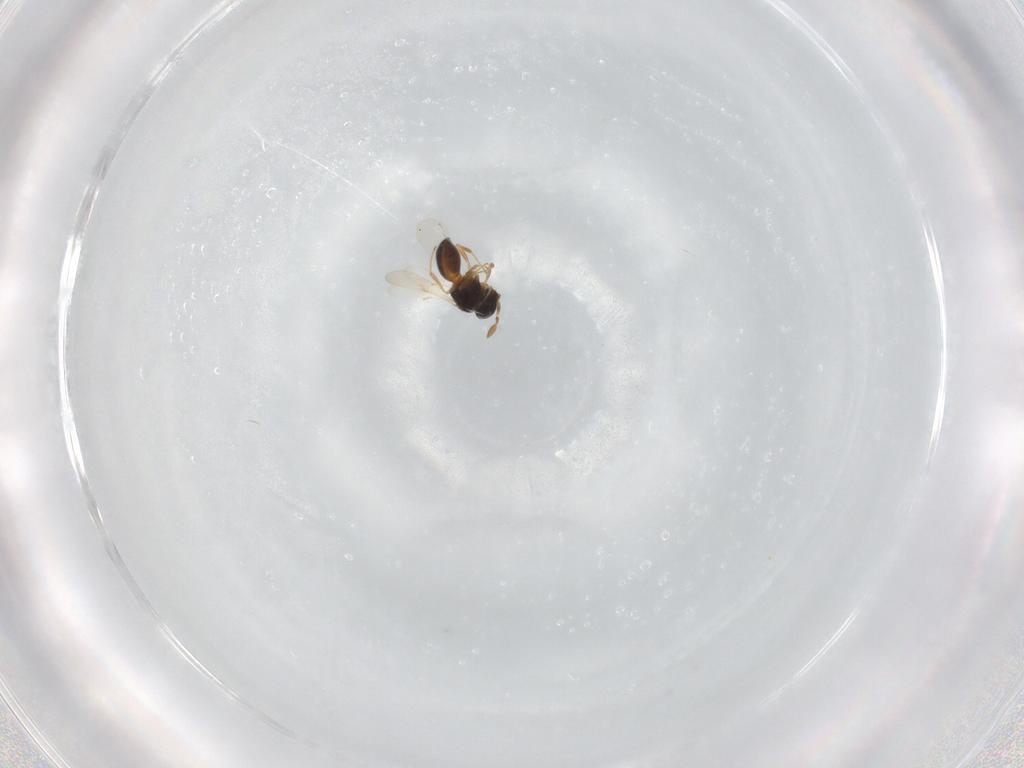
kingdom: Animalia
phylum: Arthropoda
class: Insecta
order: Hymenoptera
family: Scelionidae
